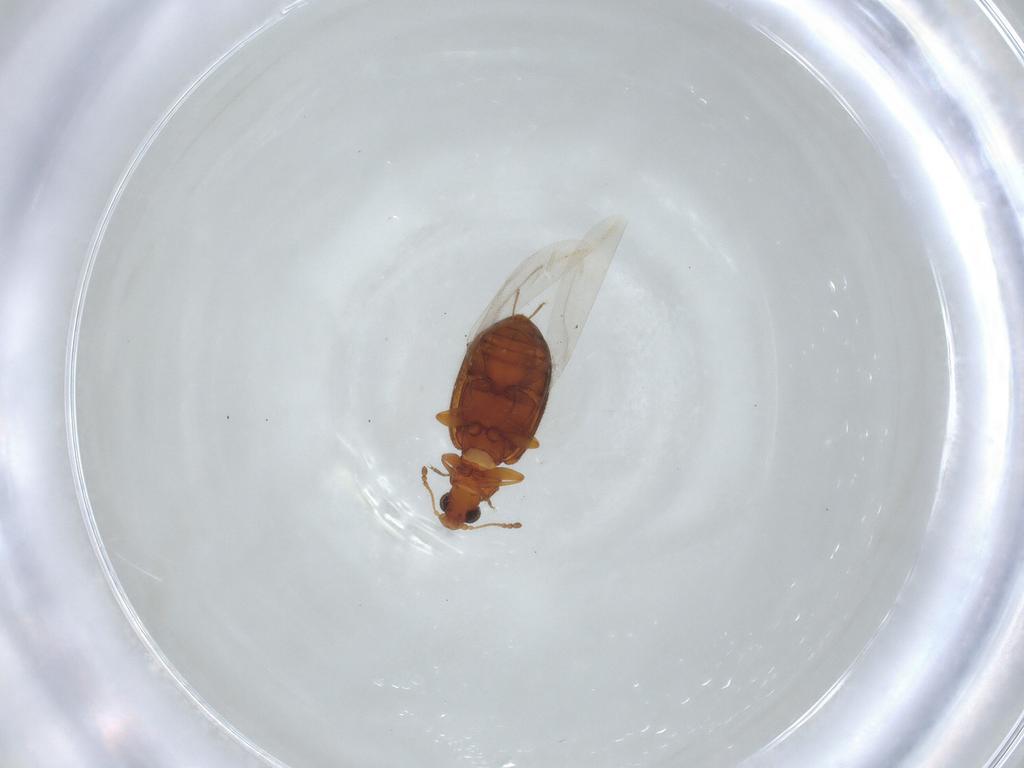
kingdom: Animalia
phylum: Arthropoda
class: Insecta
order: Coleoptera
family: Latridiidae
